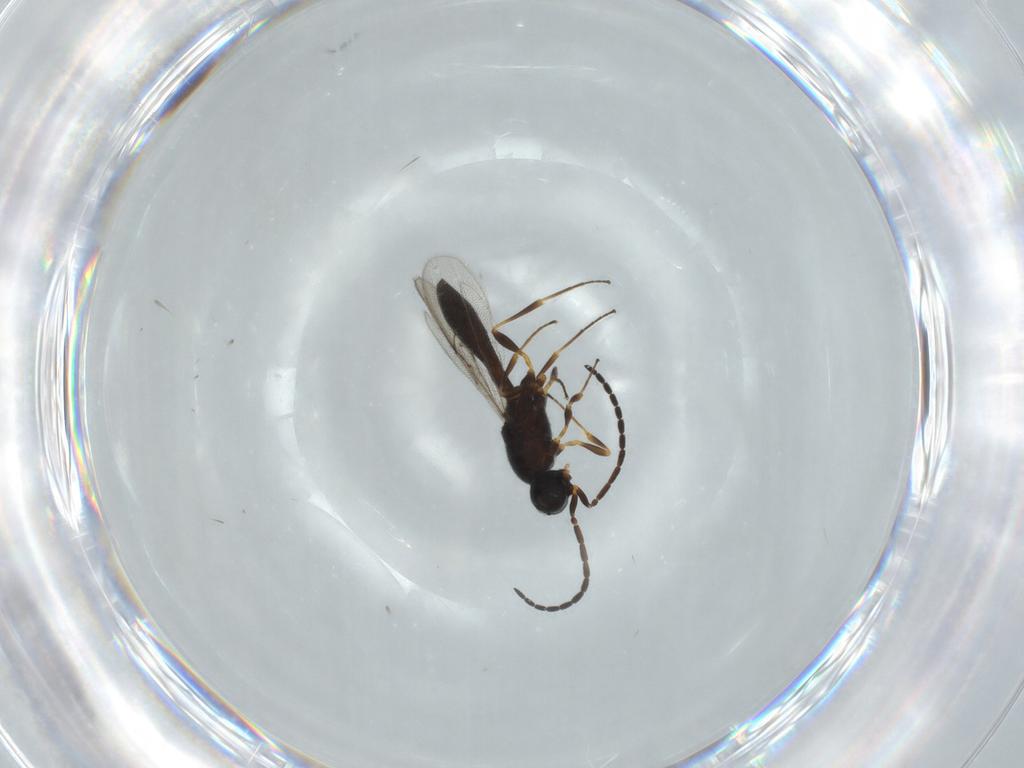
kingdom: Animalia
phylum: Arthropoda
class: Insecta
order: Hymenoptera
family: Scelionidae
